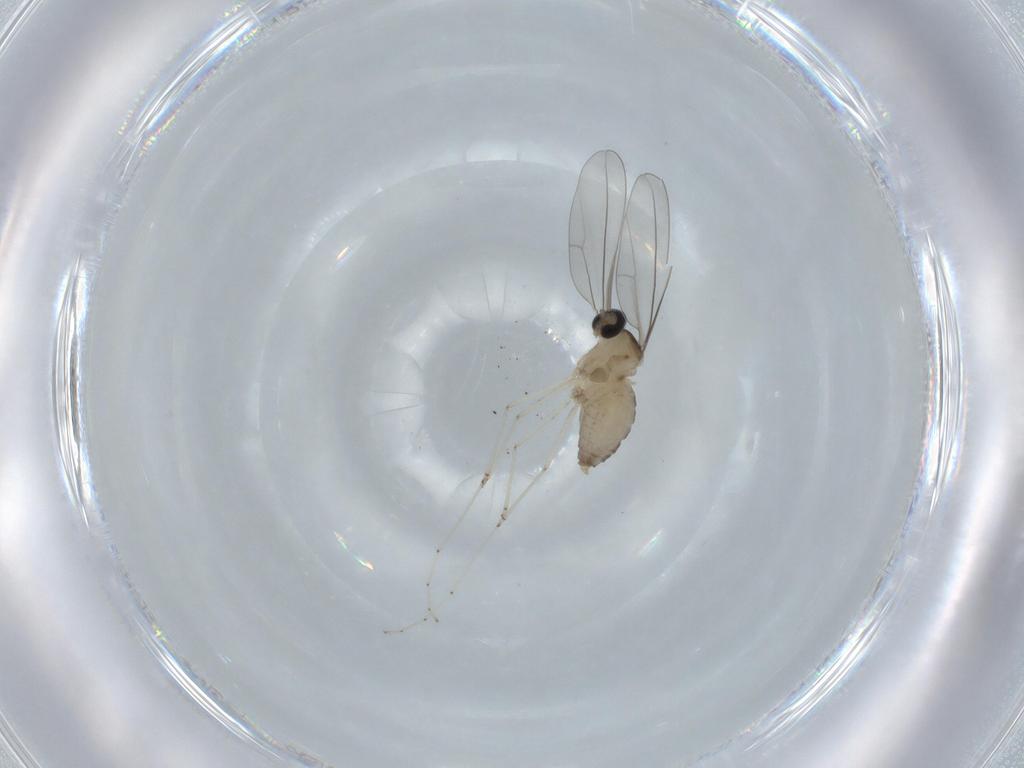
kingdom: Animalia
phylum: Arthropoda
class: Insecta
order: Diptera
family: Cecidomyiidae
